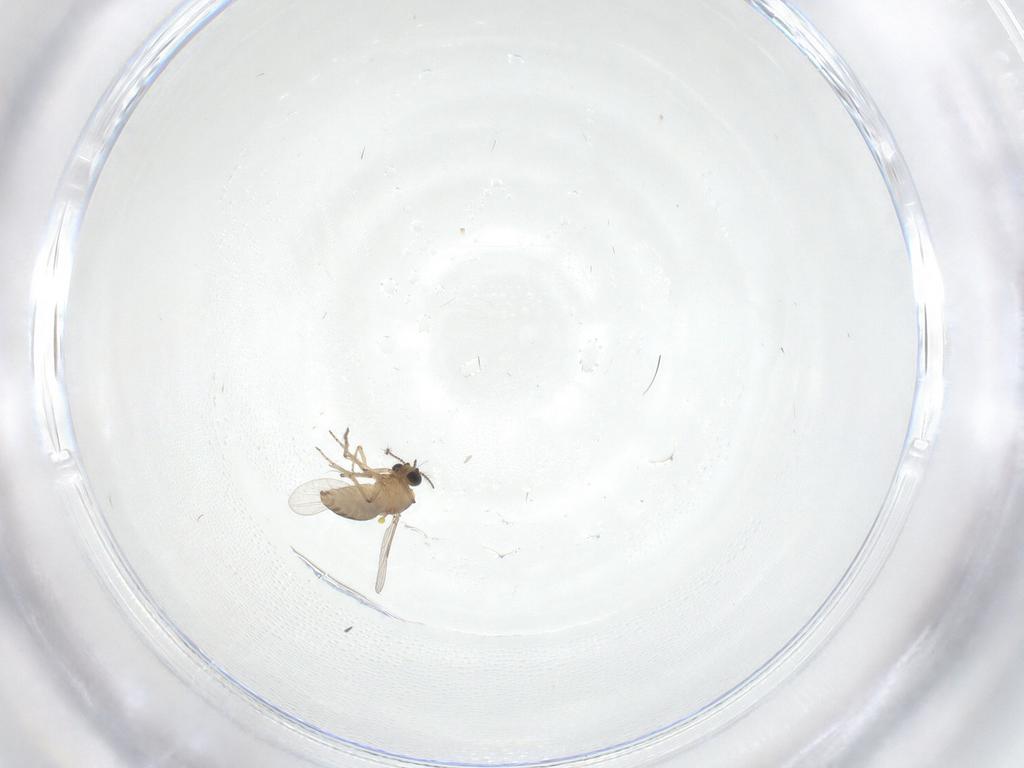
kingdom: Animalia
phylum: Arthropoda
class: Insecta
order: Diptera
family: Ceratopogonidae
